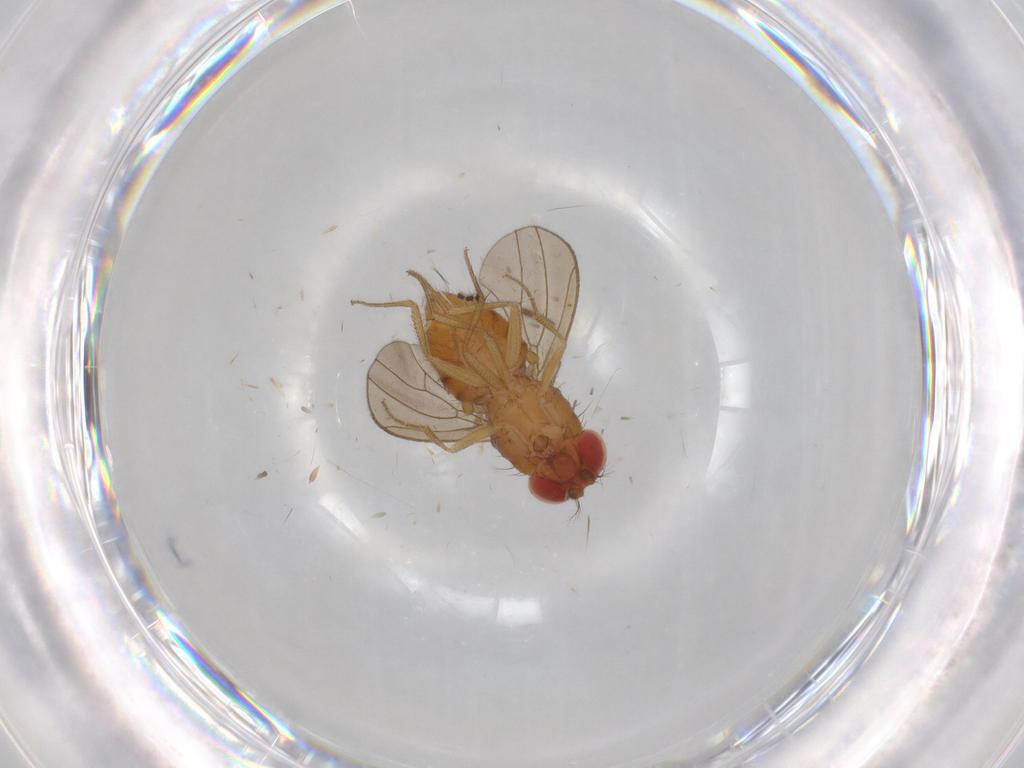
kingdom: Animalia
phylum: Arthropoda
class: Insecta
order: Diptera
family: Drosophilidae
